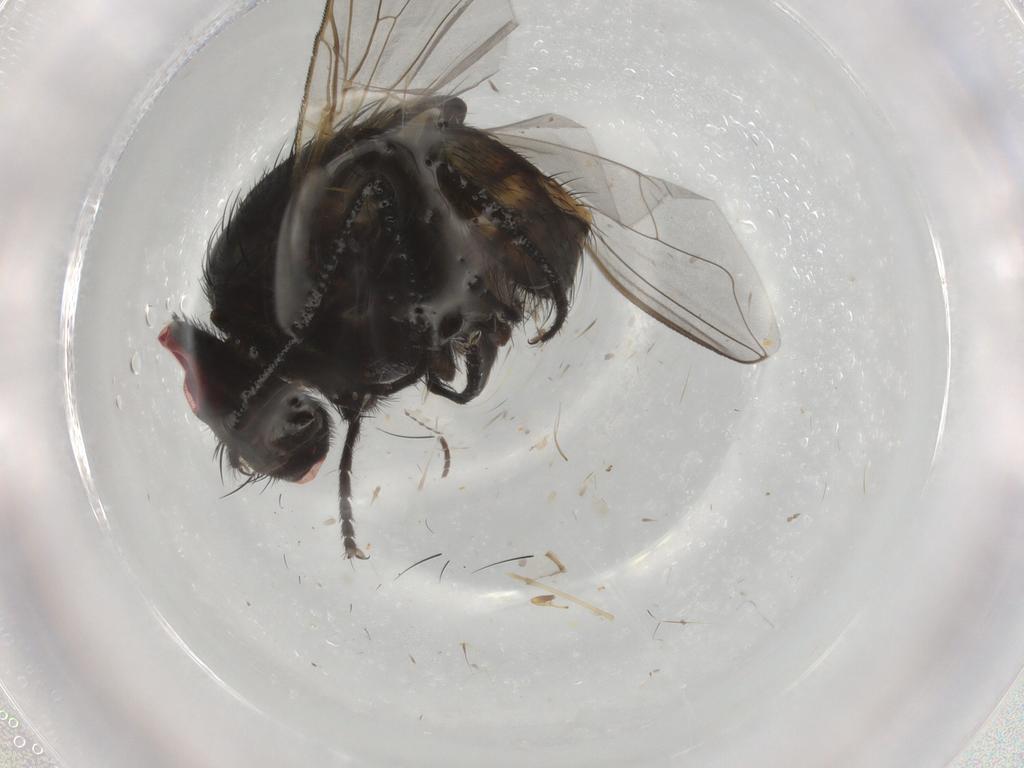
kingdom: Animalia
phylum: Arthropoda
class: Insecta
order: Diptera
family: Muscidae
